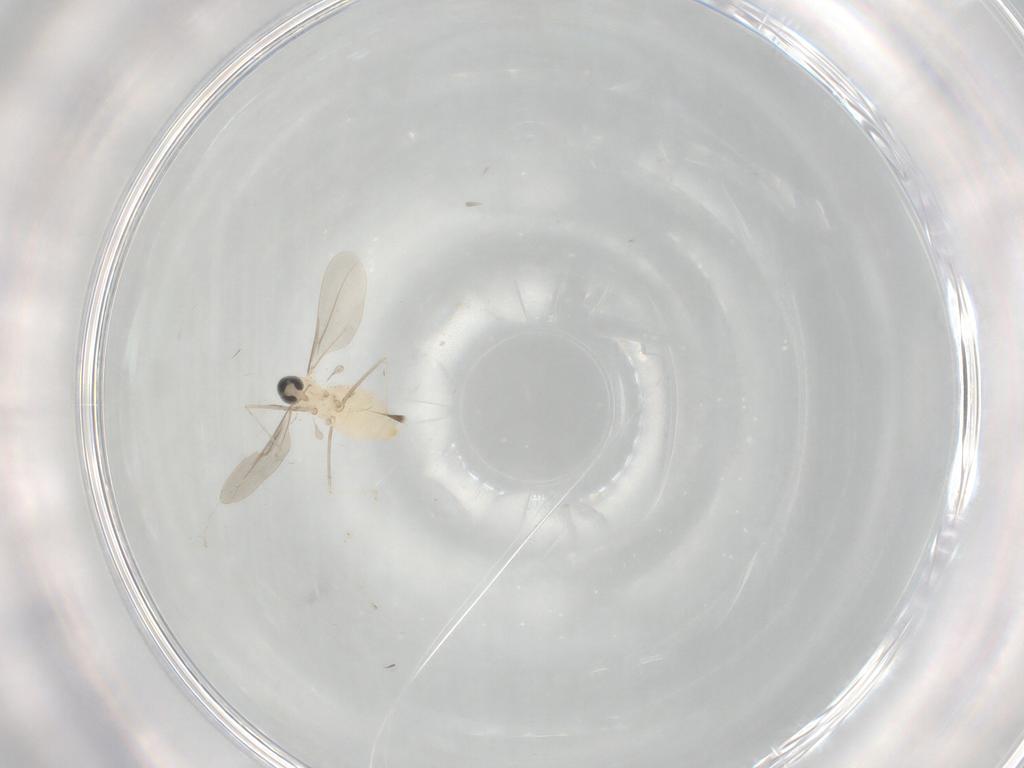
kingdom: Animalia
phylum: Arthropoda
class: Insecta
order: Diptera
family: Cecidomyiidae
